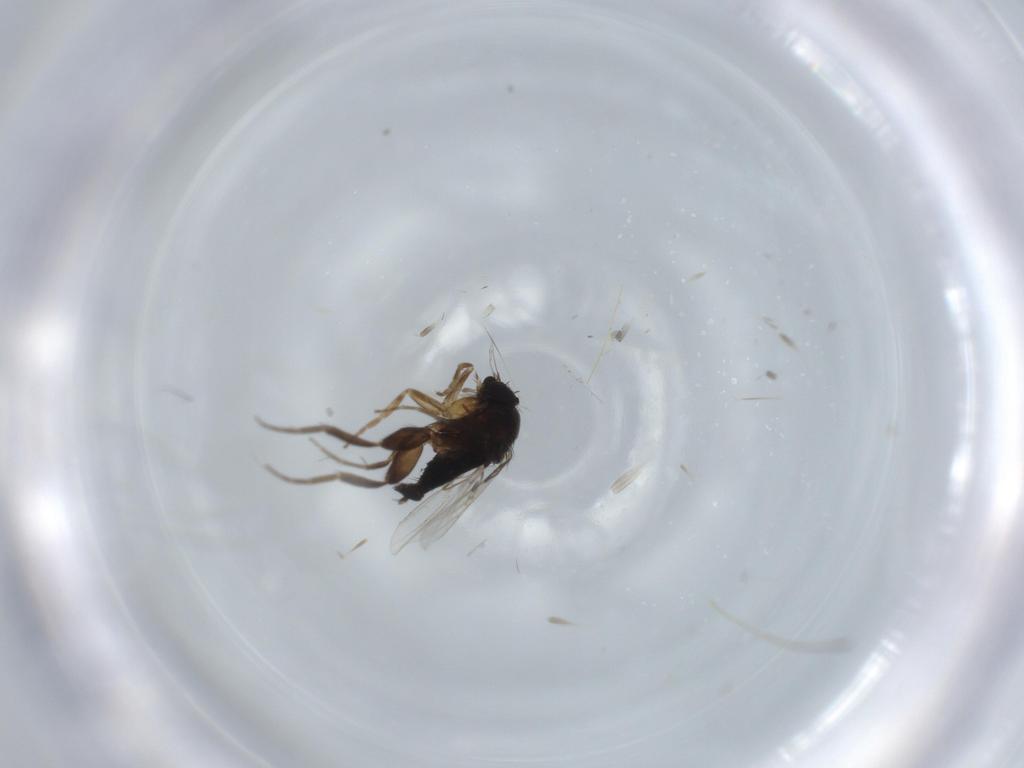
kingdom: Animalia
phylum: Arthropoda
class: Insecta
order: Diptera
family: Phoridae
